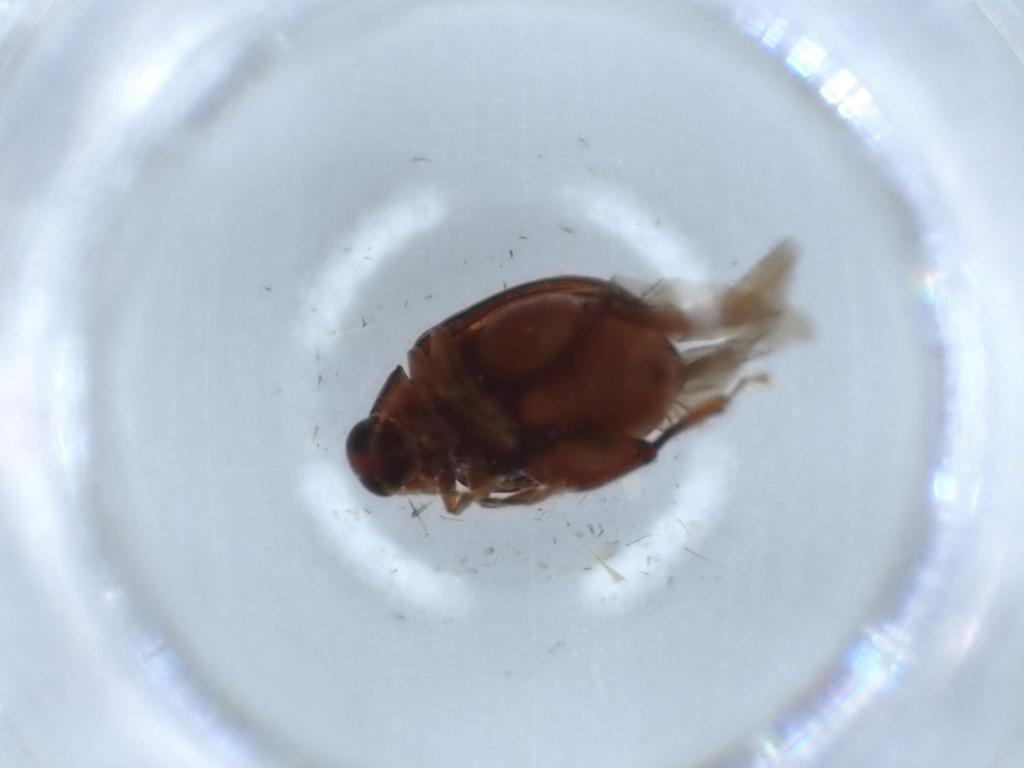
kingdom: Animalia
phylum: Arthropoda
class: Insecta
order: Coleoptera
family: Curculionidae
